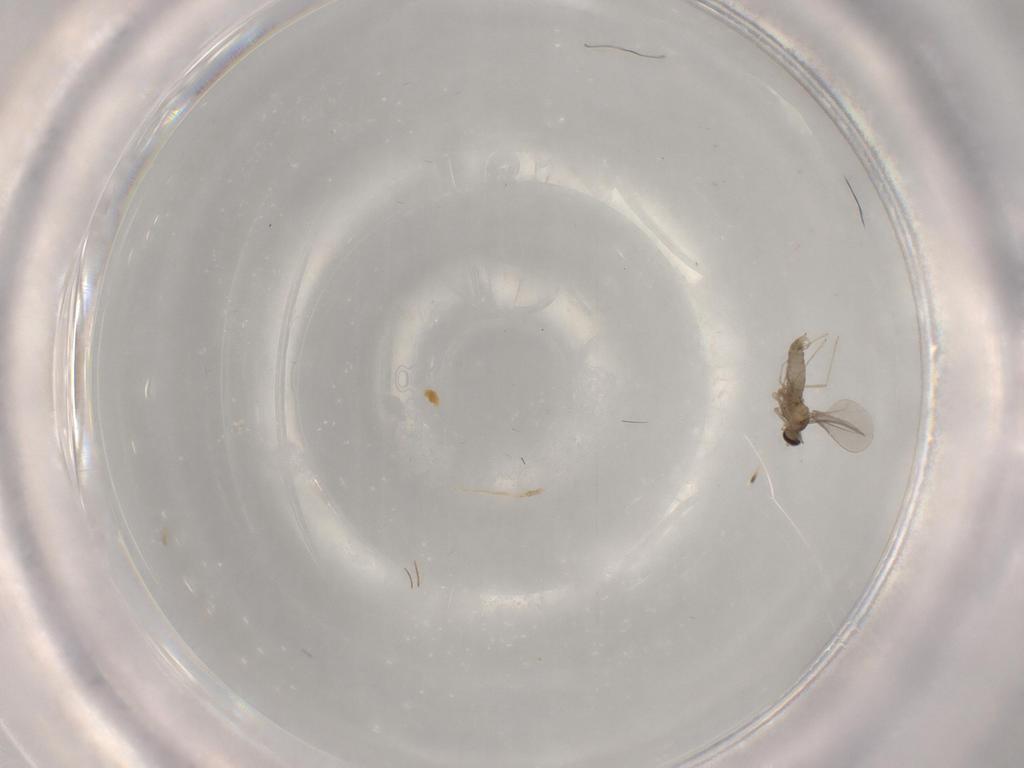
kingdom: Animalia
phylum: Arthropoda
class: Insecta
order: Diptera
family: Cecidomyiidae
